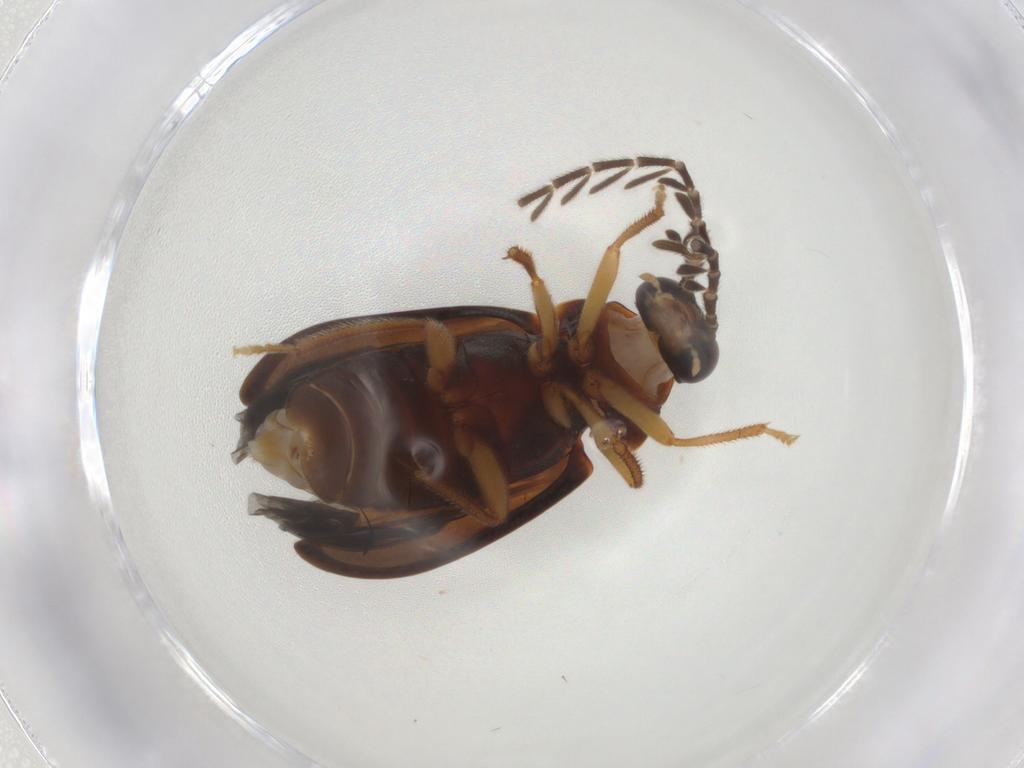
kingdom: Animalia
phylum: Arthropoda
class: Insecta
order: Coleoptera
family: Ptilodactylidae
